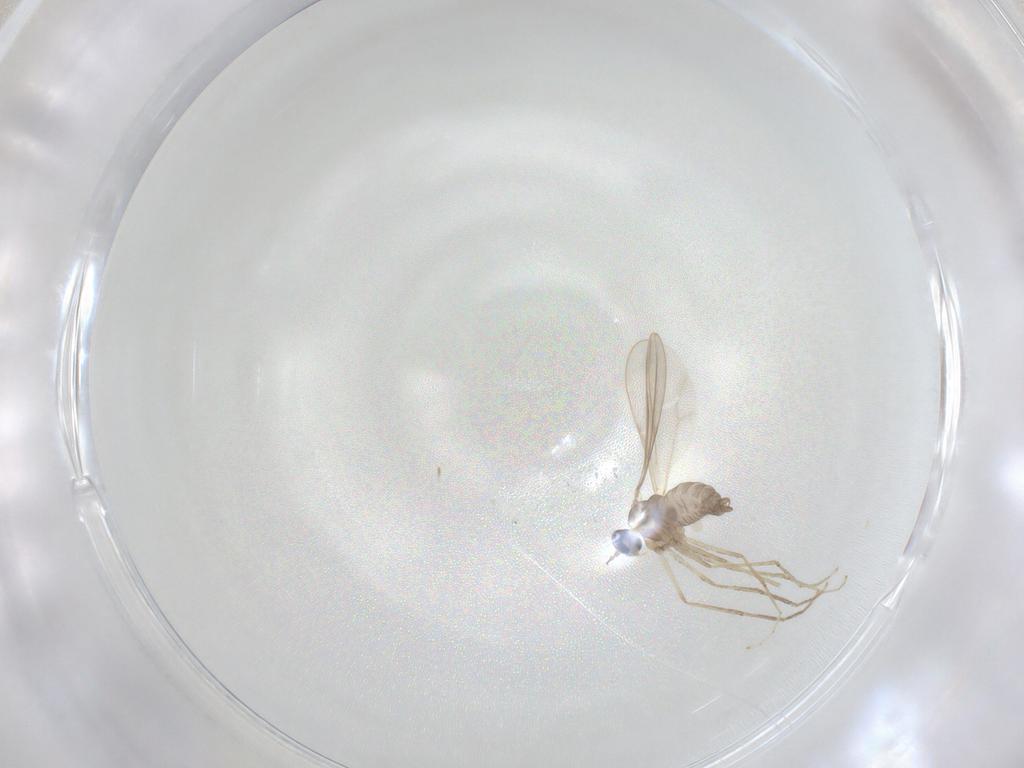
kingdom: Animalia
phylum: Arthropoda
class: Insecta
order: Diptera
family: Cecidomyiidae
